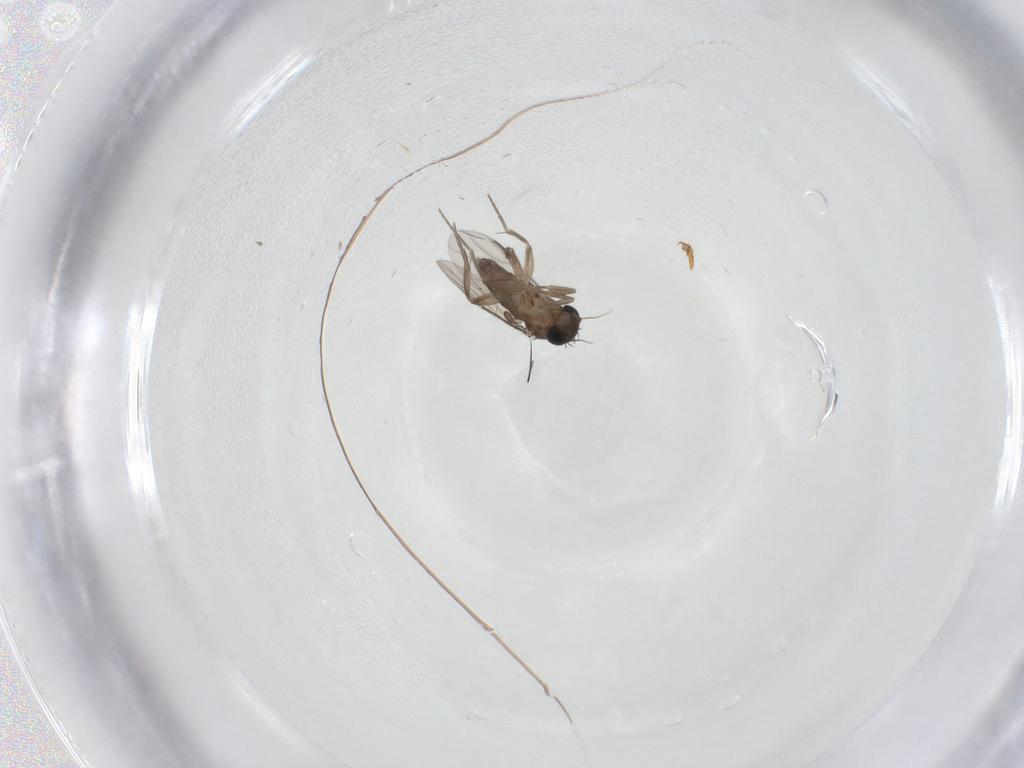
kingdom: Animalia
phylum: Arthropoda
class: Insecta
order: Diptera
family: Phoridae
